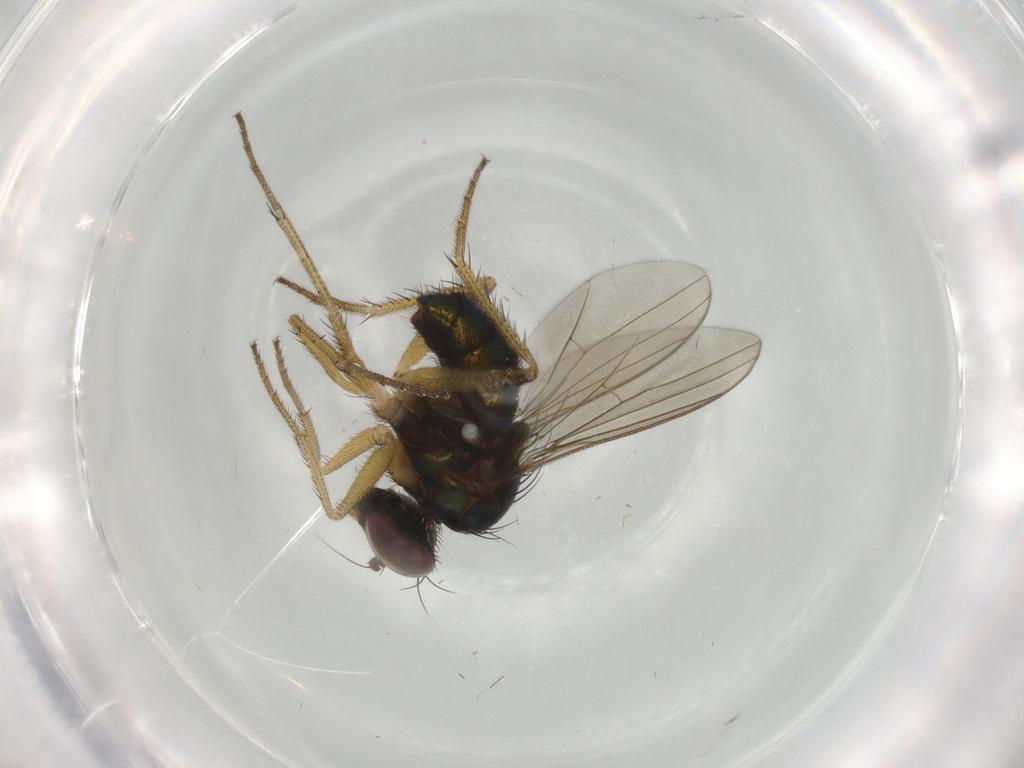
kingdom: Animalia
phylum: Arthropoda
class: Insecta
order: Diptera
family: Dolichopodidae
